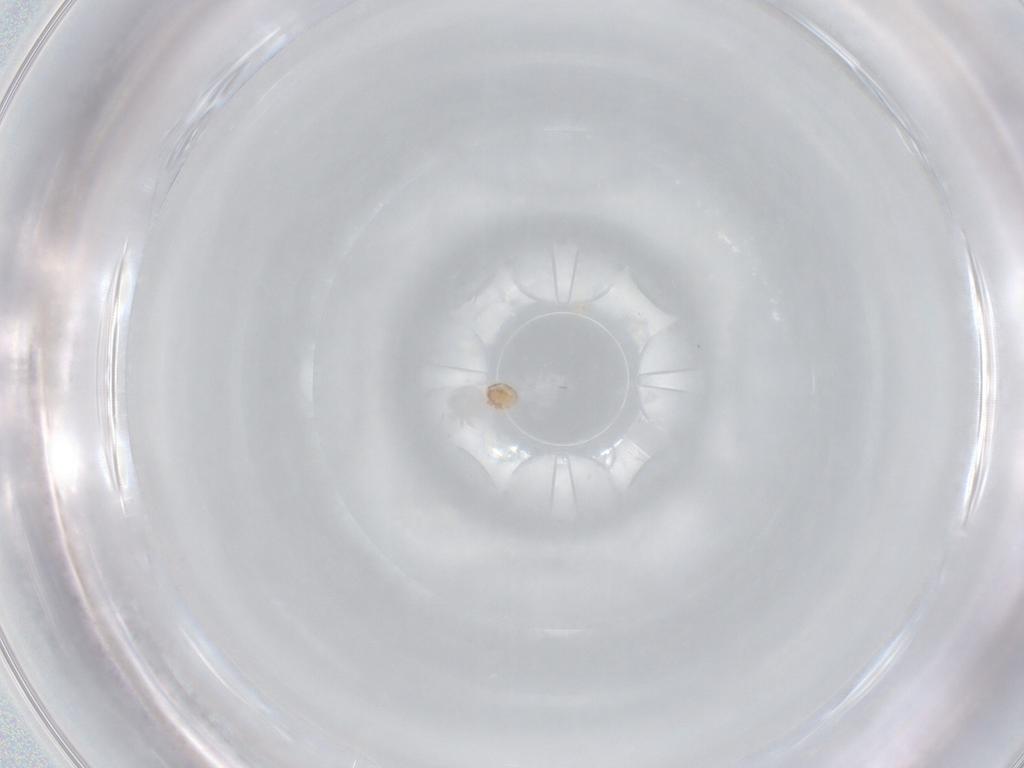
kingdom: Animalia
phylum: Arthropoda
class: Arachnida
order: Trombidiformes
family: Scutacaridae
